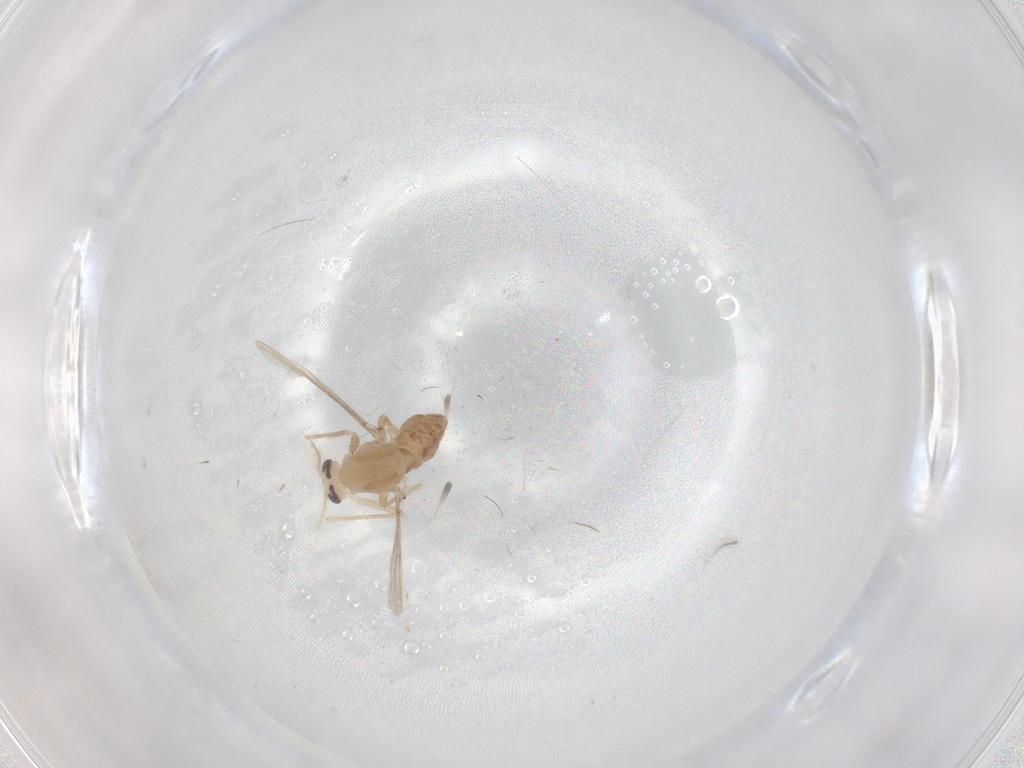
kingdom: Animalia
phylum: Arthropoda
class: Insecta
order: Diptera
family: Chironomidae
